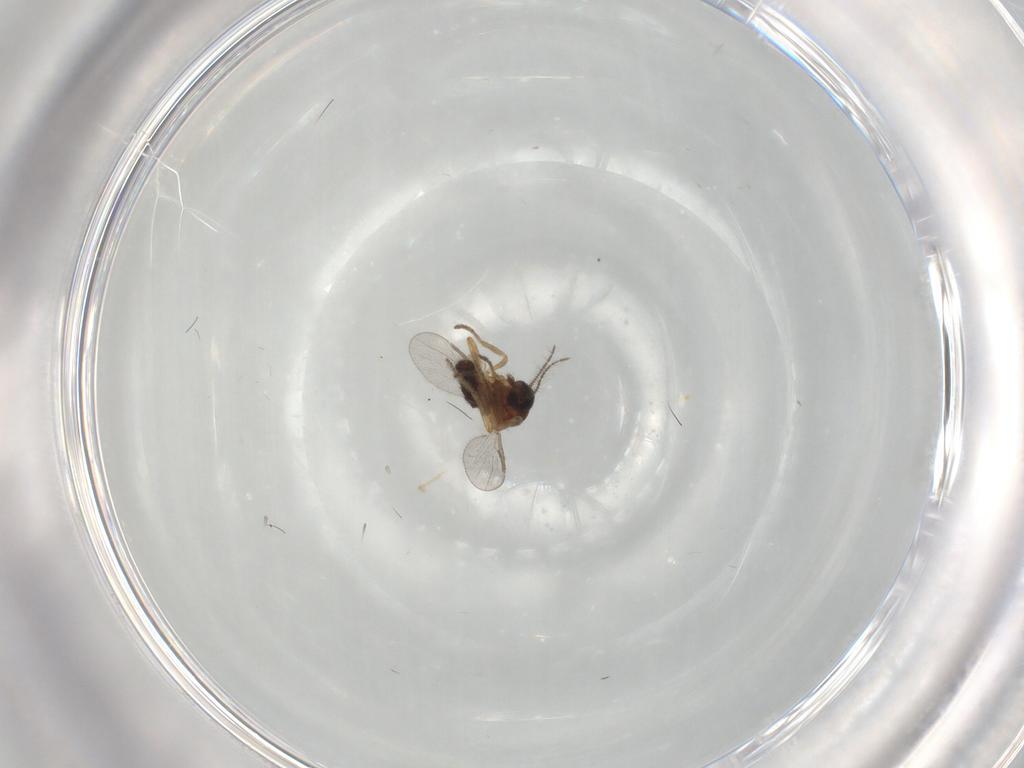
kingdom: Animalia
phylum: Arthropoda
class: Insecta
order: Diptera
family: Ceratopogonidae
